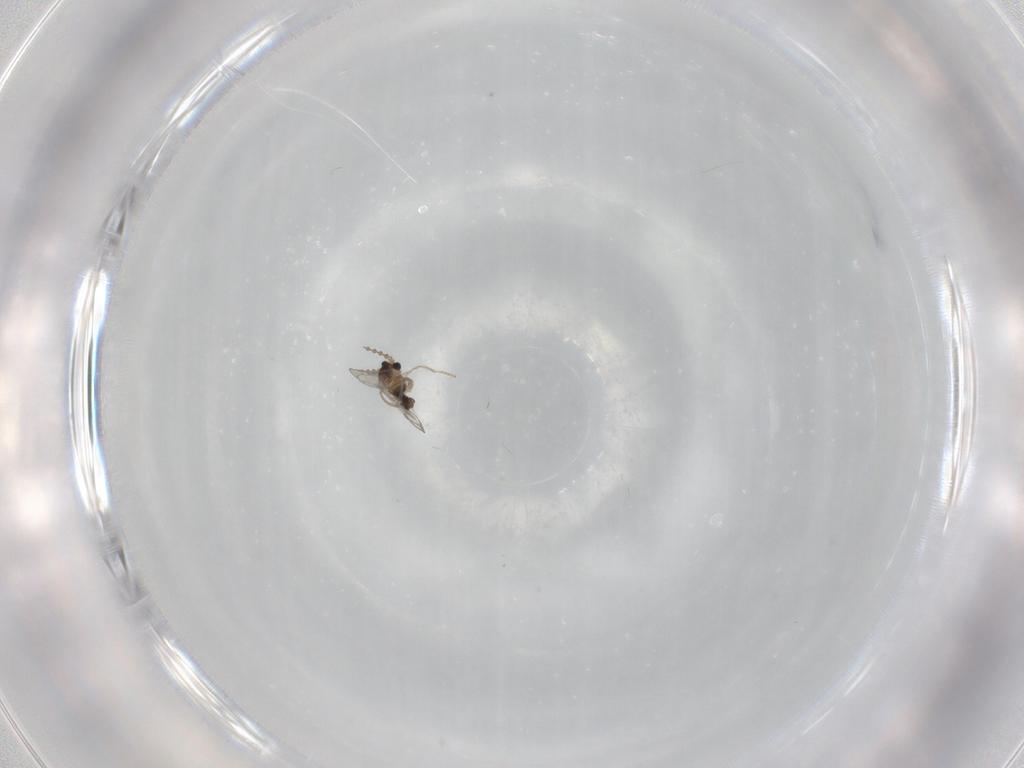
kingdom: Animalia
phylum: Arthropoda
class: Insecta
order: Diptera
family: Cecidomyiidae
